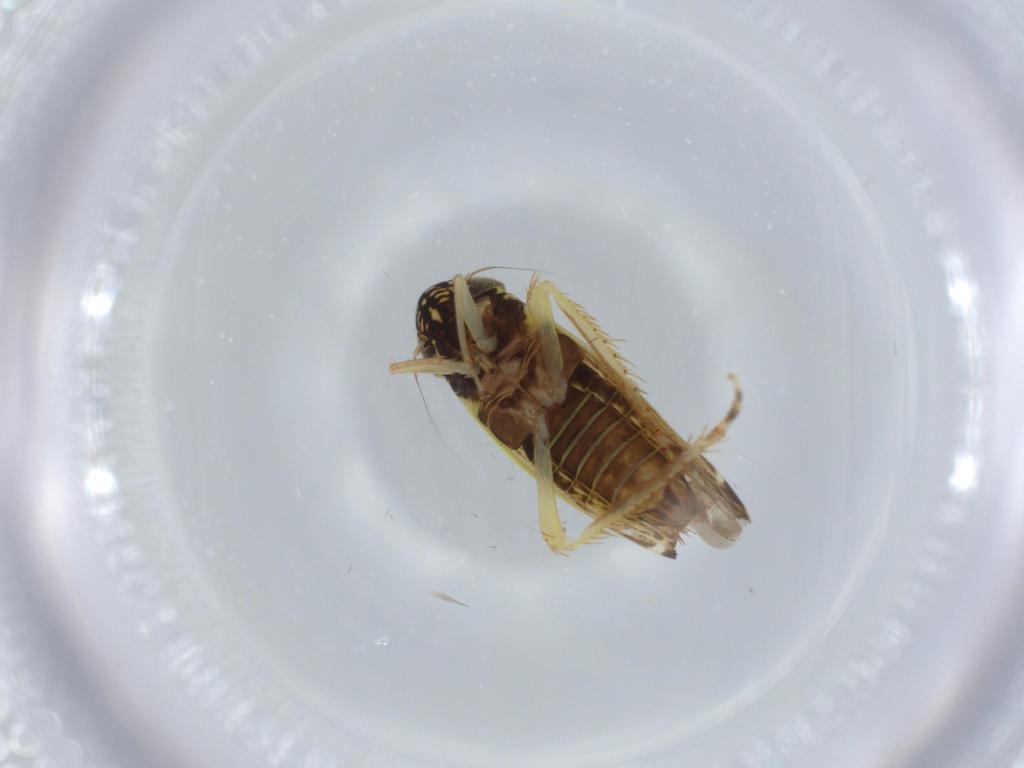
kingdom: Animalia
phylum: Arthropoda
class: Insecta
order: Hemiptera
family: Cicadellidae
